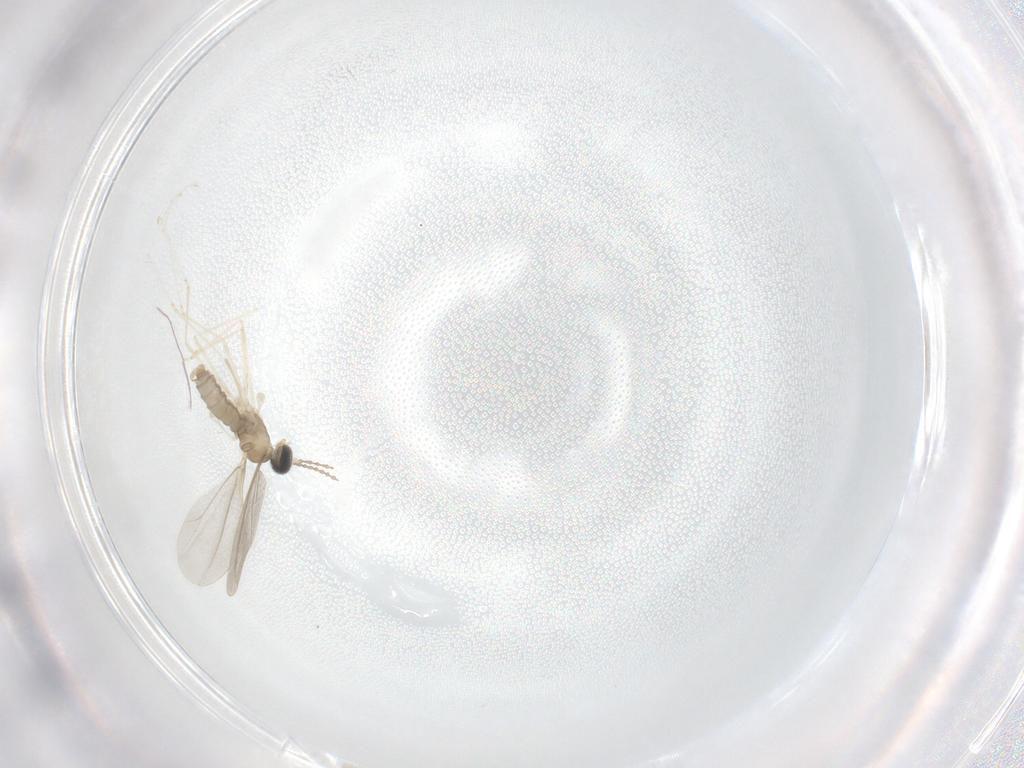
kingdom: Animalia
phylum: Arthropoda
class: Insecta
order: Diptera
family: Cecidomyiidae
